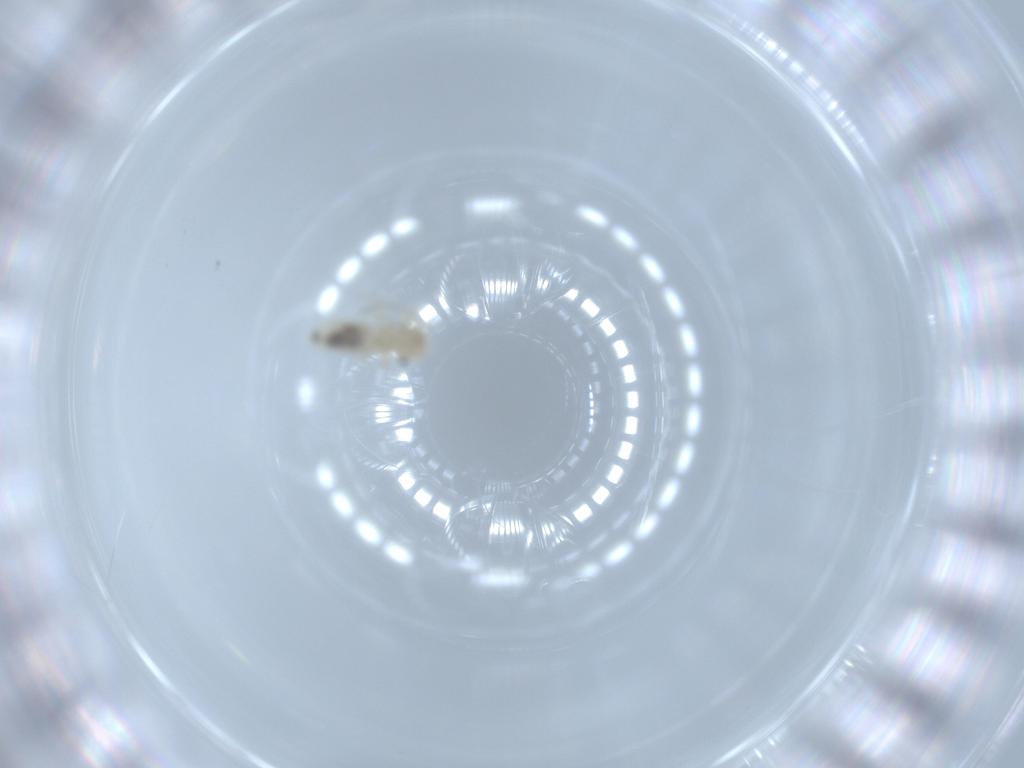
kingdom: Animalia
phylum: Arthropoda
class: Insecta
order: Psocodea
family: Caeciliusidae
